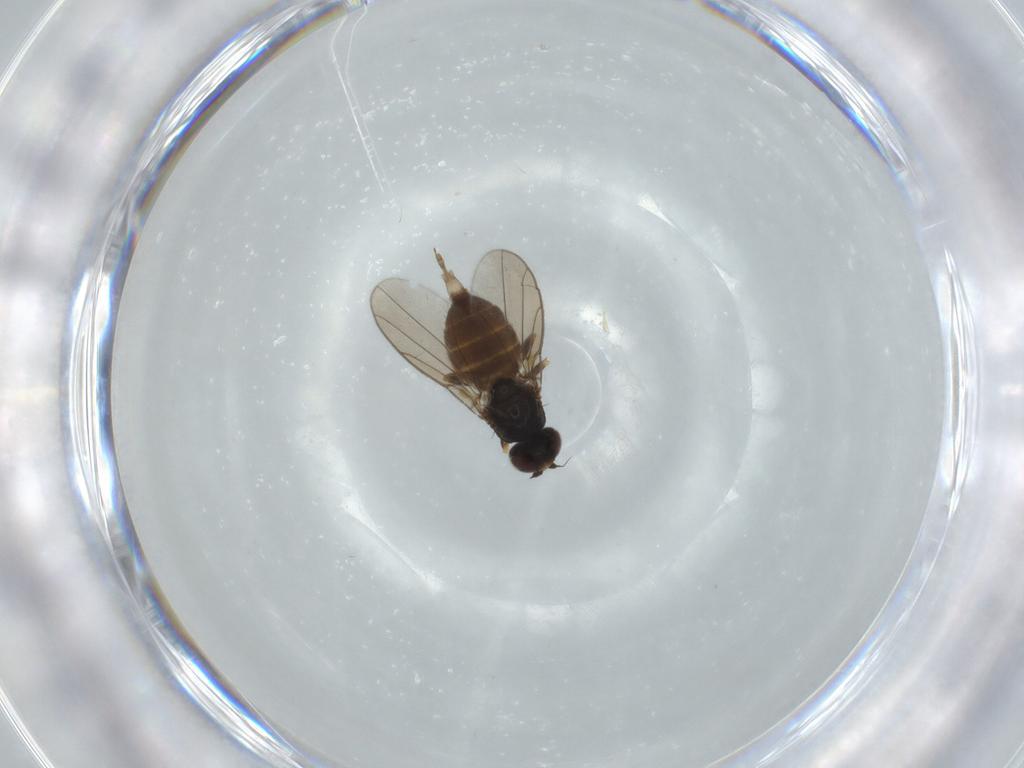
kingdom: Animalia
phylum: Arthropoda
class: Insecta
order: Diptera
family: Chloropidae
